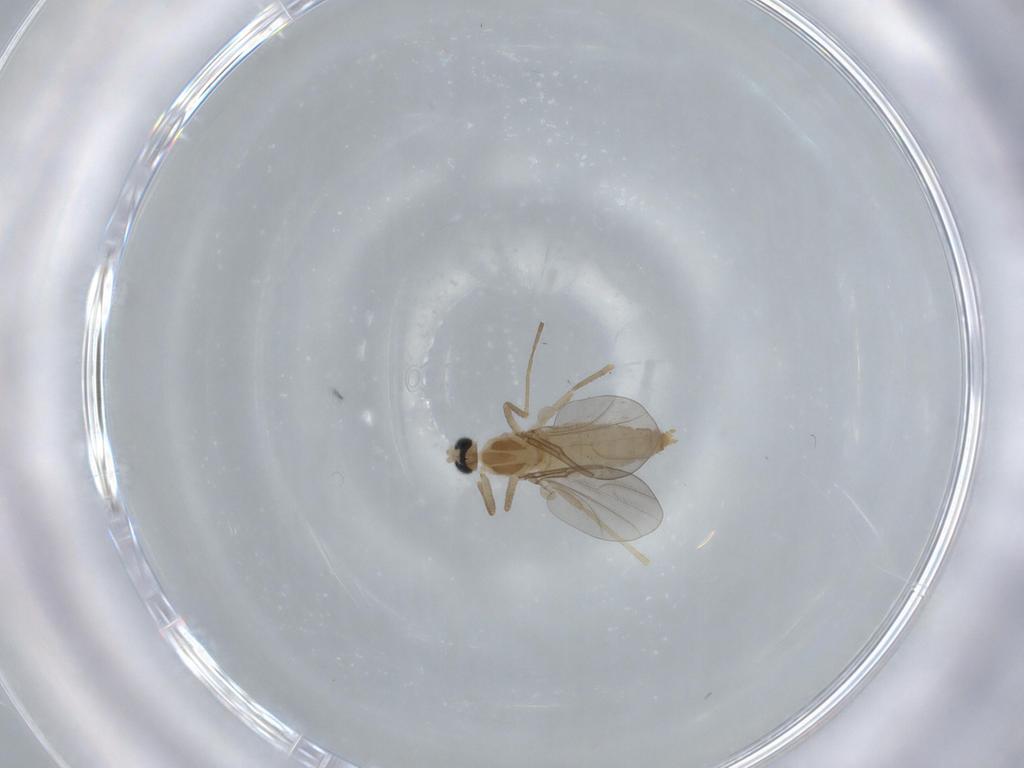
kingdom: Animalia
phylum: Arthropoda
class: Insecta
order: Diptera
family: Cecidomyiidae
